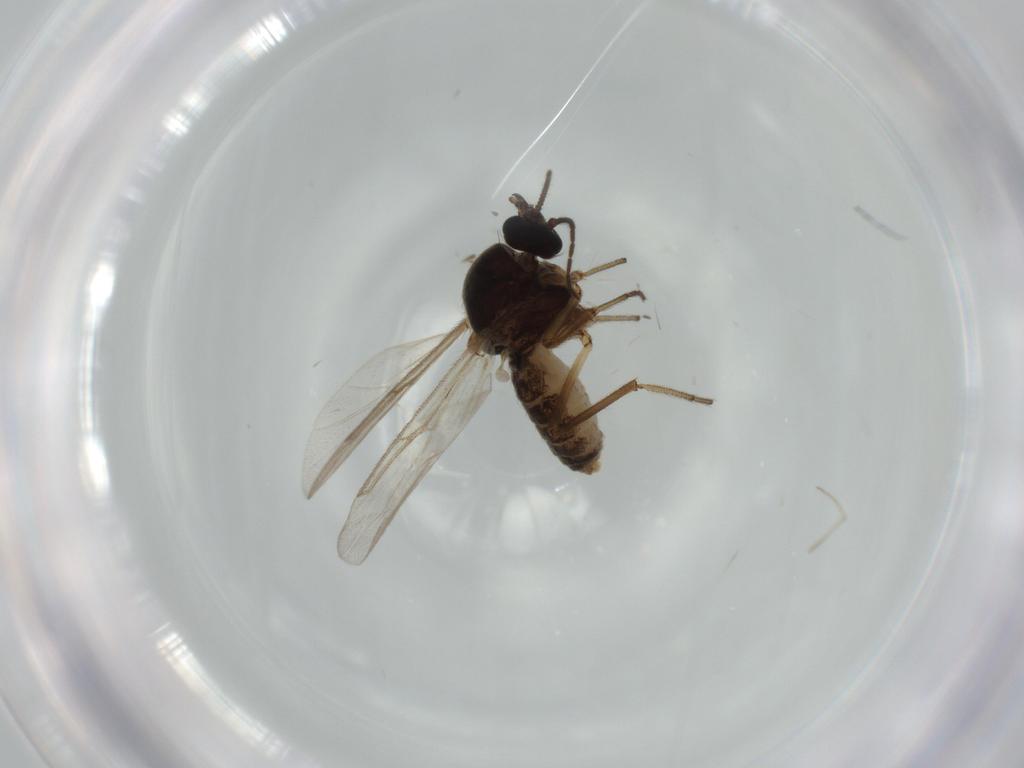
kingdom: Animalia
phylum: Arthropoda
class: Insecta
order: Diptera
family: Ceratopogonidae
